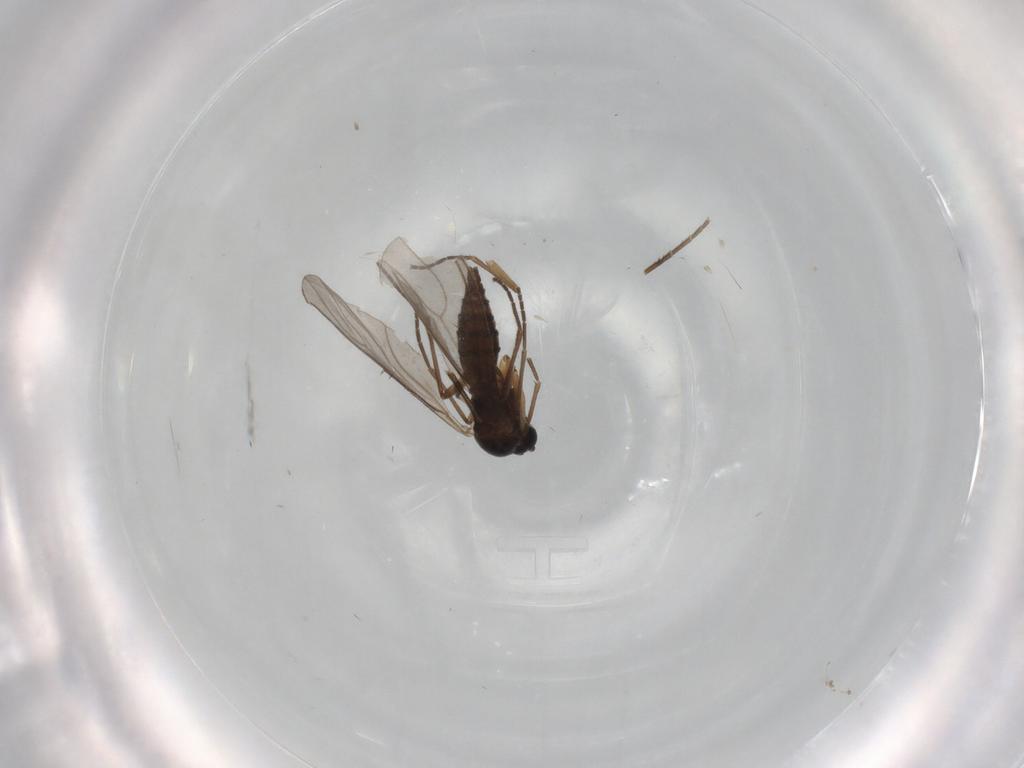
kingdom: Animalia
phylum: Arthropoda
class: Insecta
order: Diptera
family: Sciaridae
